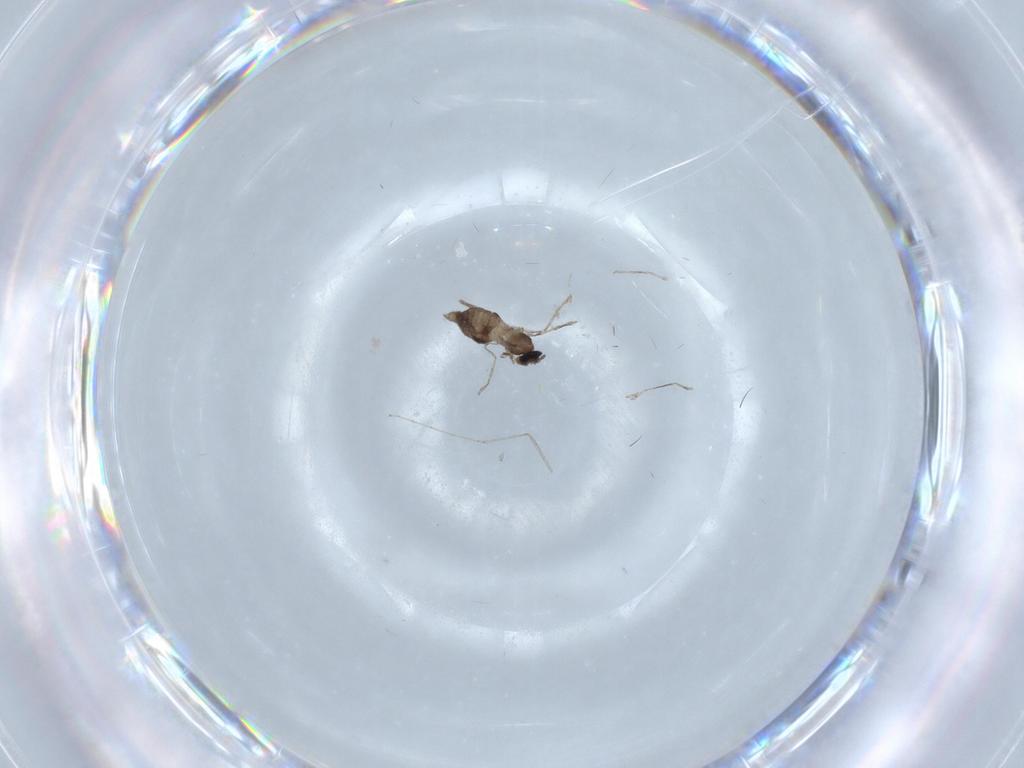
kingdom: Animalia
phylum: Arthropoda
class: Insecta
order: Diptera
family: Cecidomyiidae
